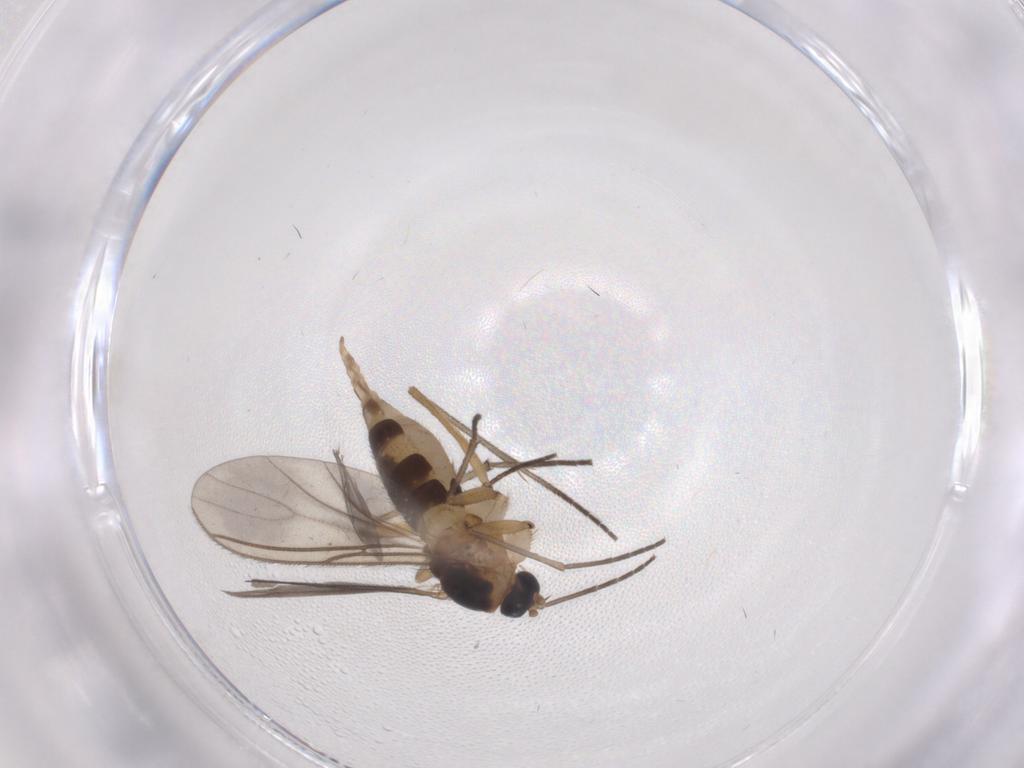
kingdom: Animalia
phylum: Arthropoda
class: Insecta
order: Diptera
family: Sciaridae
